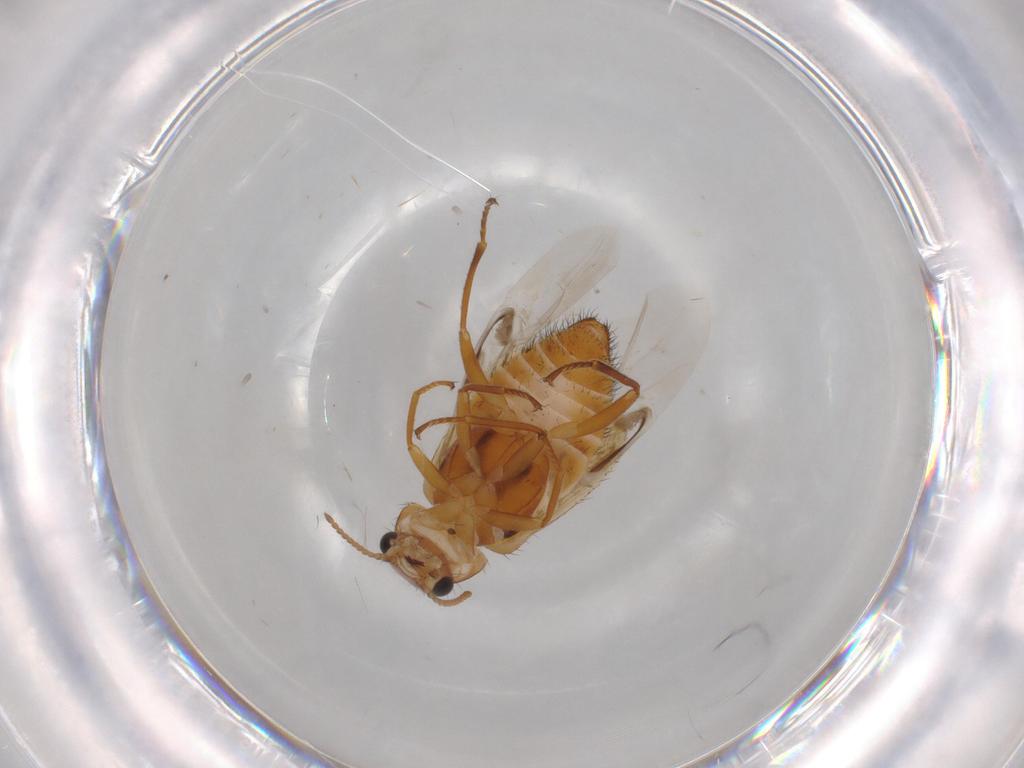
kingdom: Animalia
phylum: Arthropoda
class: Insecta
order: Coleoptera
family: Melyridae
